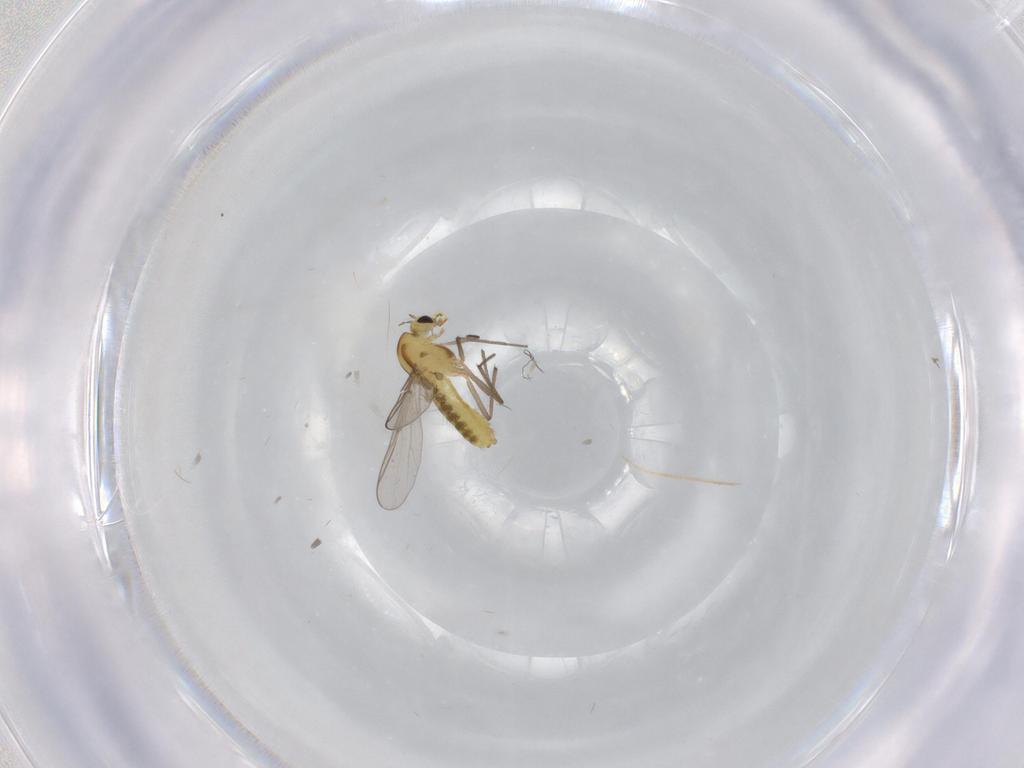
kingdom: Animalia
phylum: Arthropoda
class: Insecta
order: Diptera
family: Chironomidae
